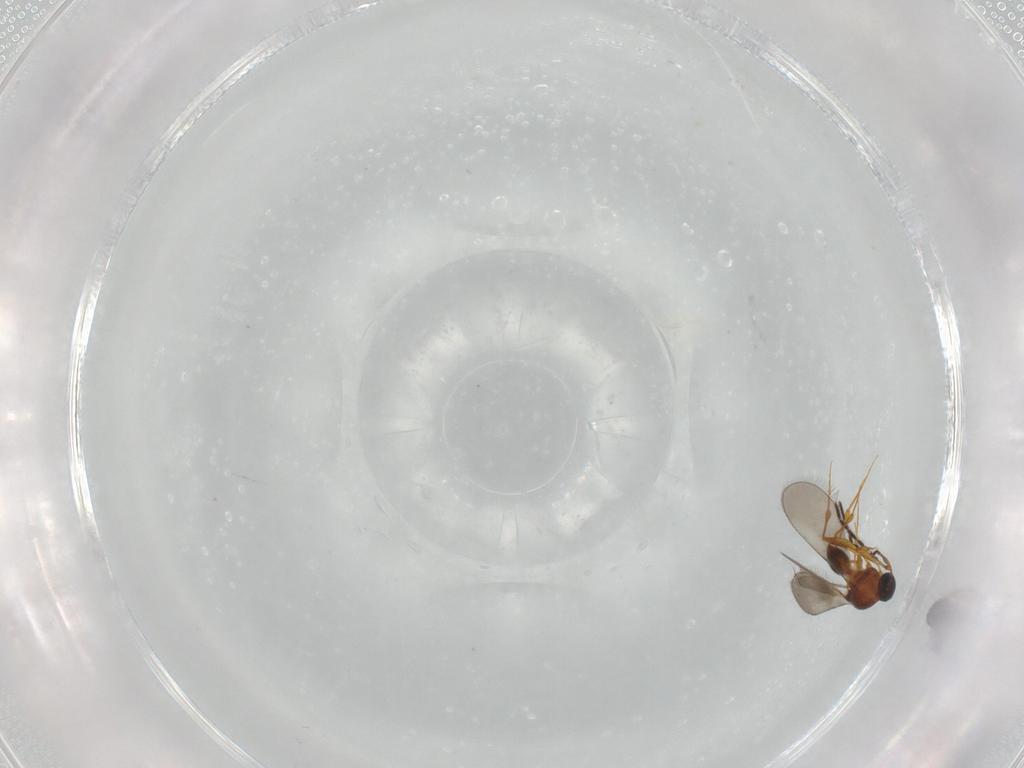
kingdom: Animalia
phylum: Arthropoda
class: Insecta
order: Hymenoptera
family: Platygastridae
